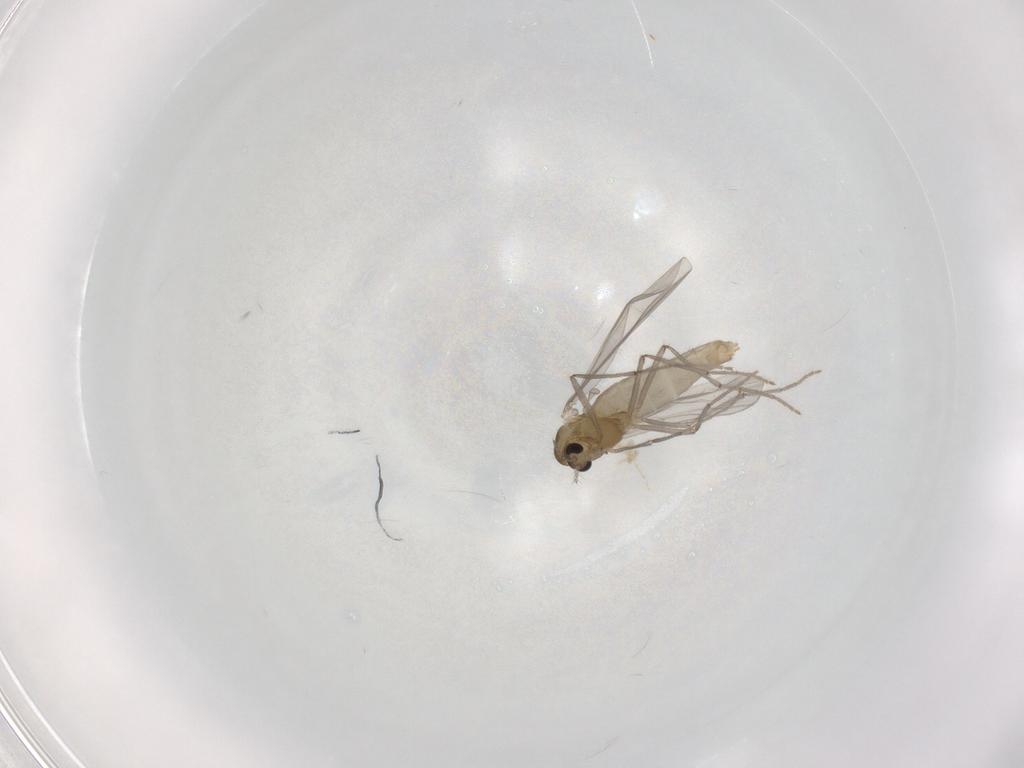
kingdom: Animalia
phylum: Arthropoda
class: Insecta
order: Diptera
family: Chironomidae
